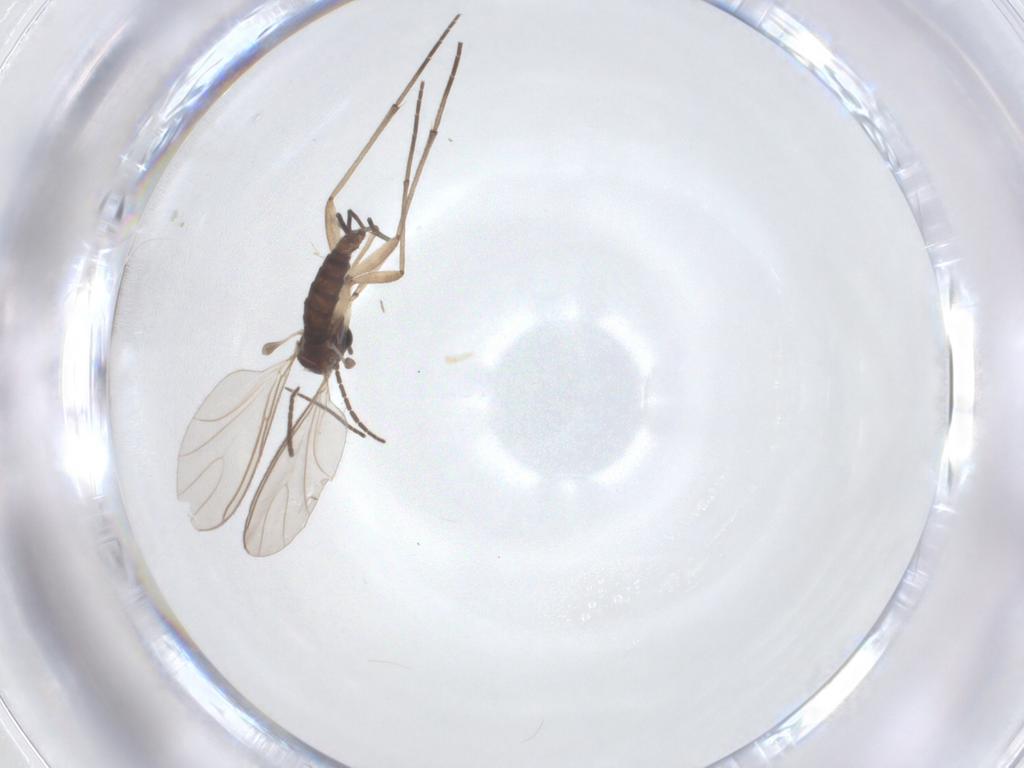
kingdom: Animalia
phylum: Arthropoda
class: Insecta
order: Diptera
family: Sciaridae
